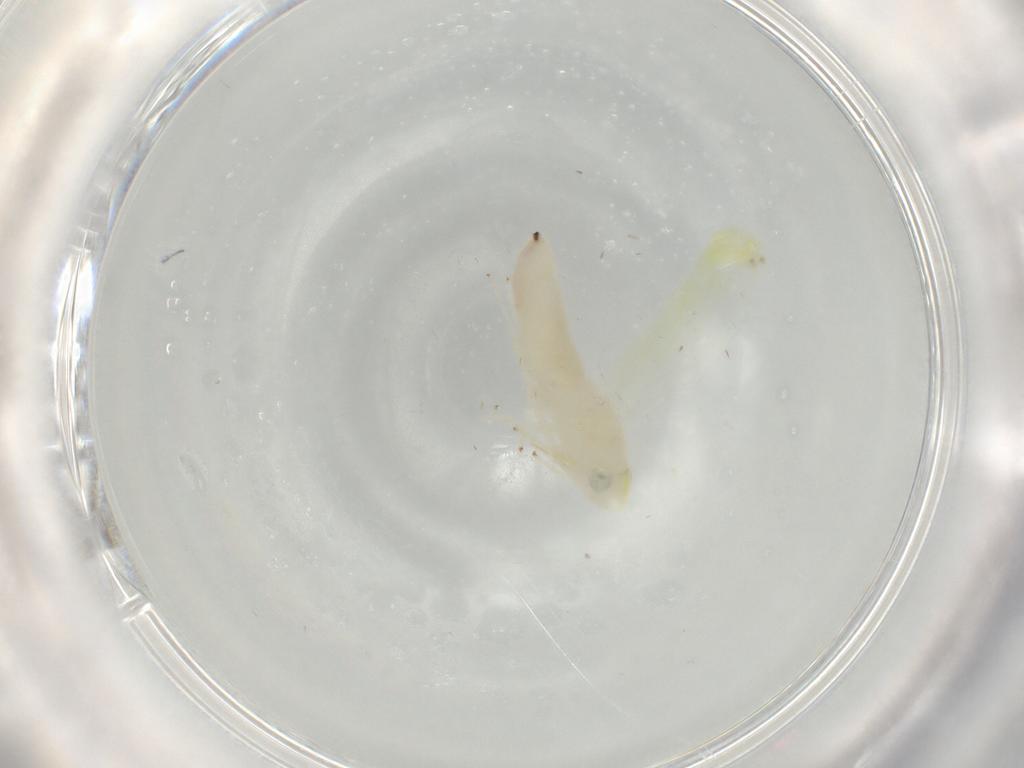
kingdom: Animalia
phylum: Arthropoda
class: Insecta
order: Hemiptera
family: Cicadellidae
